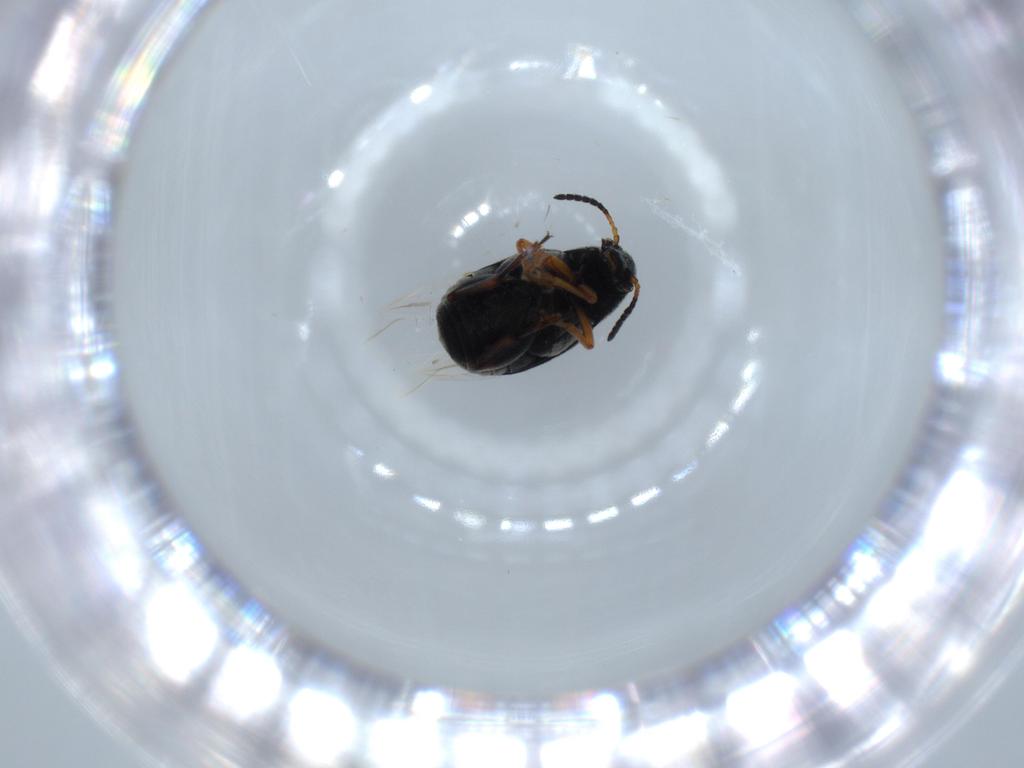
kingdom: Animalia
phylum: Arthropoda
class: Insecta
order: Coleoptera
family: Chrysomelidae
